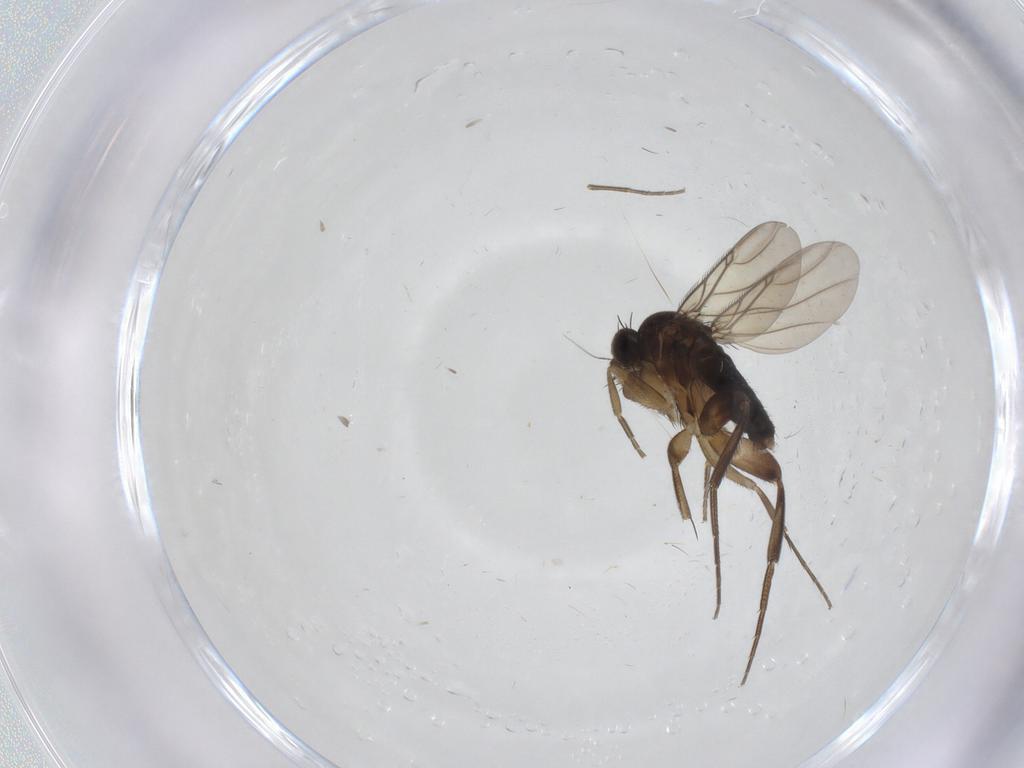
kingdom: Animalia
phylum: Arthropoda
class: Insecta
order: Diptera
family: Phoridae
